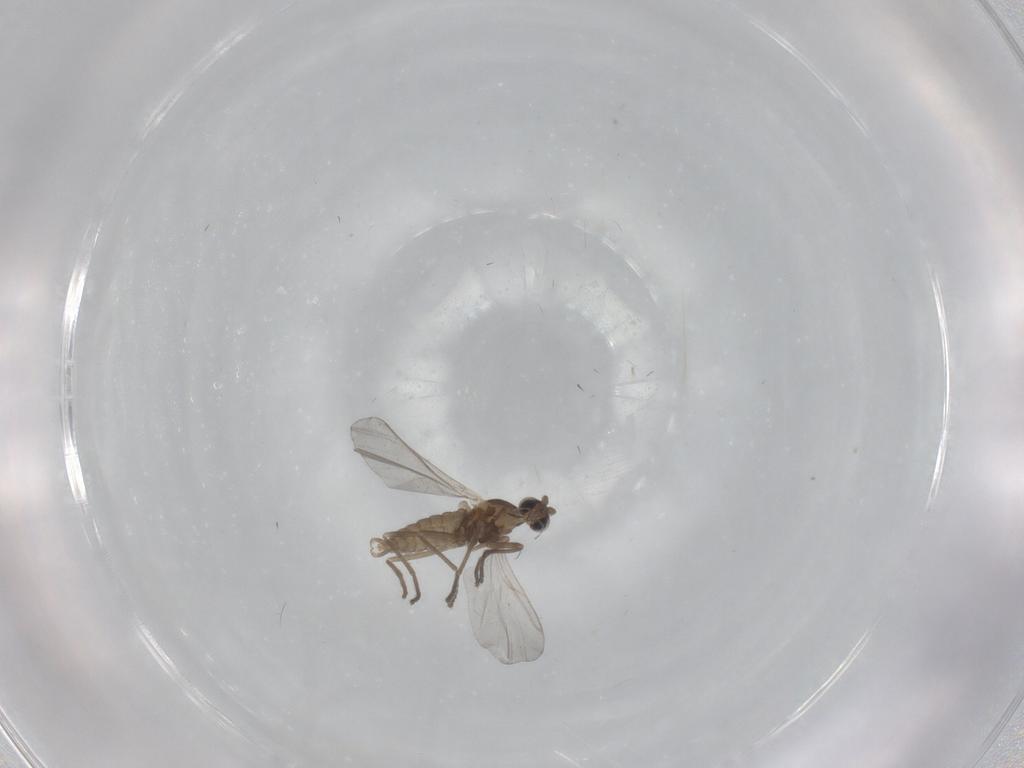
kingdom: Animalia
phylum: Arthropoda
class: Insecta
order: Diptera
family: Cecidomyiidae
